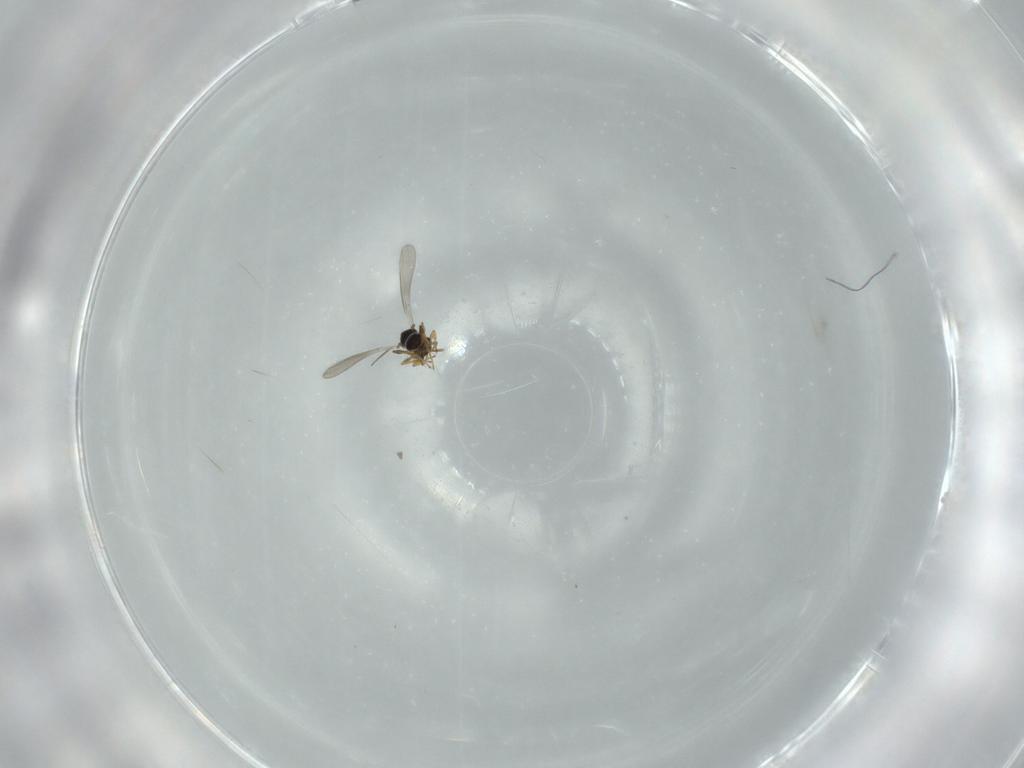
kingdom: Animalia
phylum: Arthropoda
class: Insecta
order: Hymenoptera
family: Platygastridae
